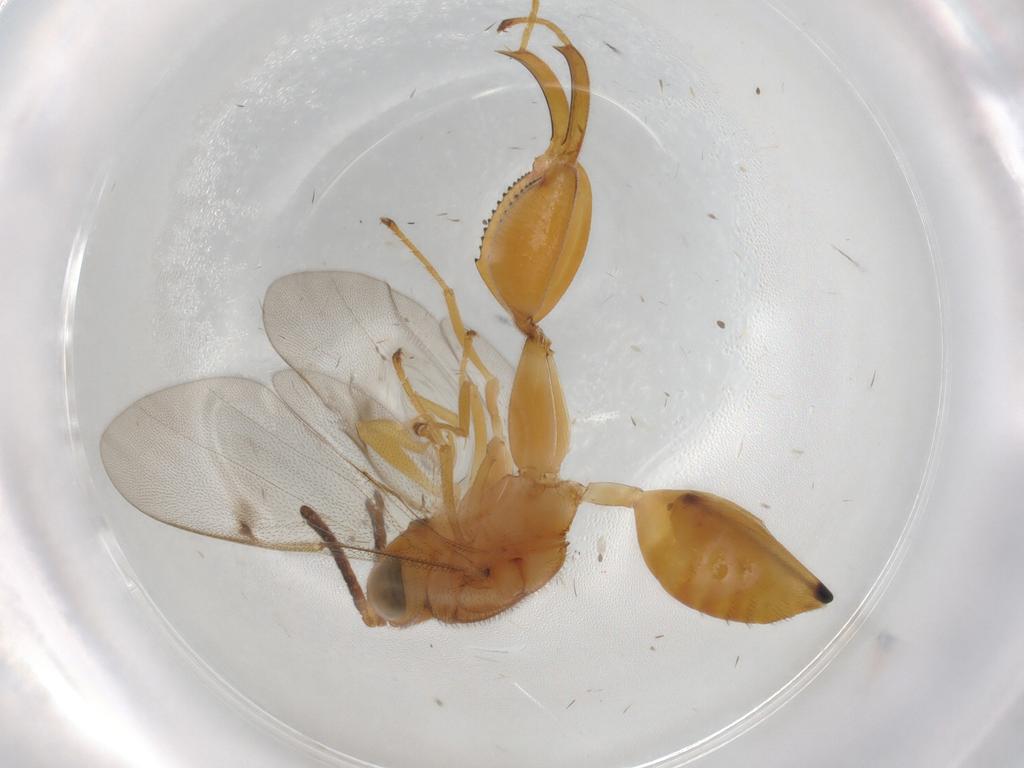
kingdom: Animalia
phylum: Arthropoda
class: Insecta
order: Hymenoptera
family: Chalcididae
